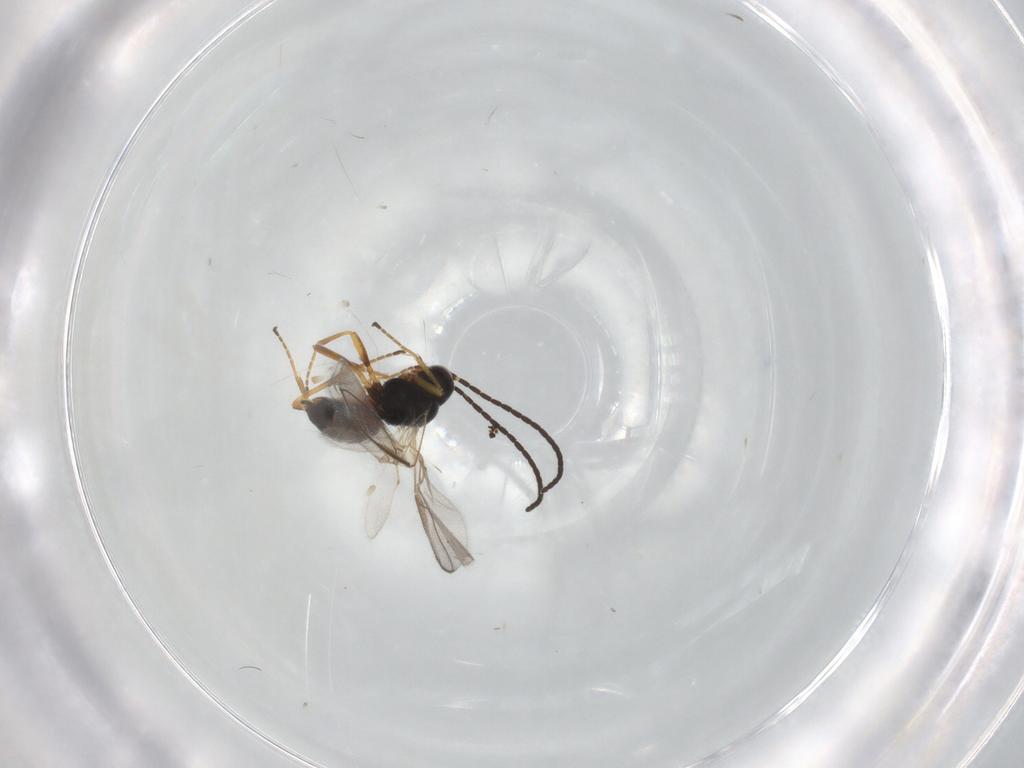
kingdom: Animalia
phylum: Arthropoda
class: Insecta
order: Hymenoptera
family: Braconidae
